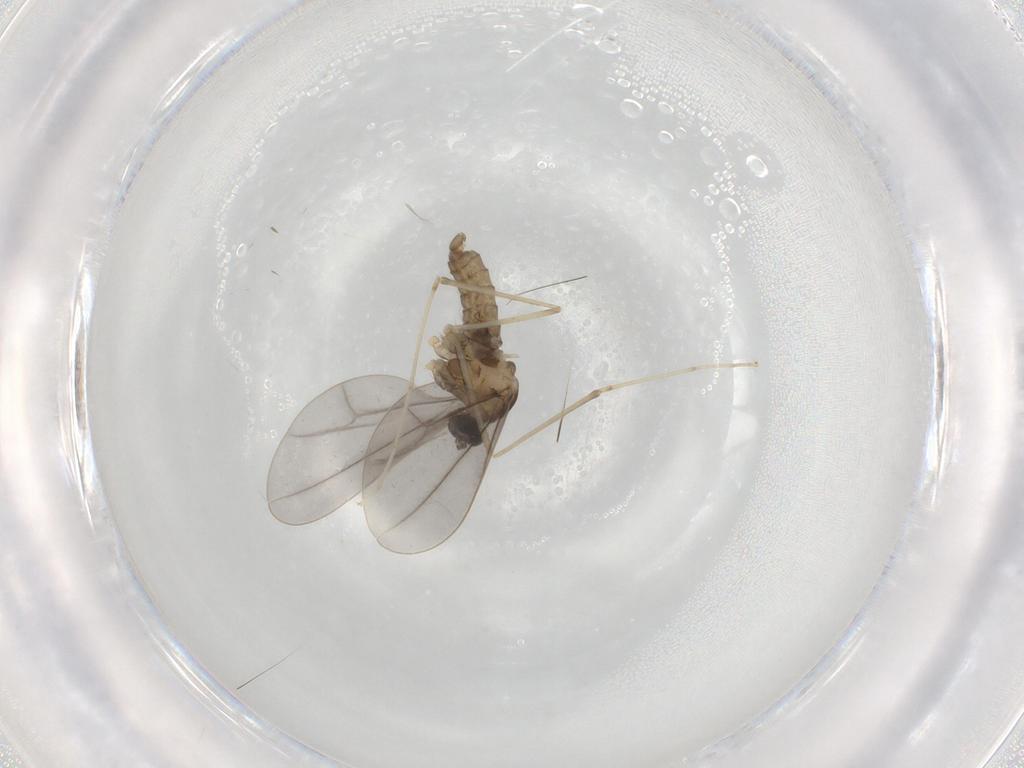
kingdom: Animalia
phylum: Arthropoda
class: Insecta
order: Diptera
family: Cecidomyiidae
